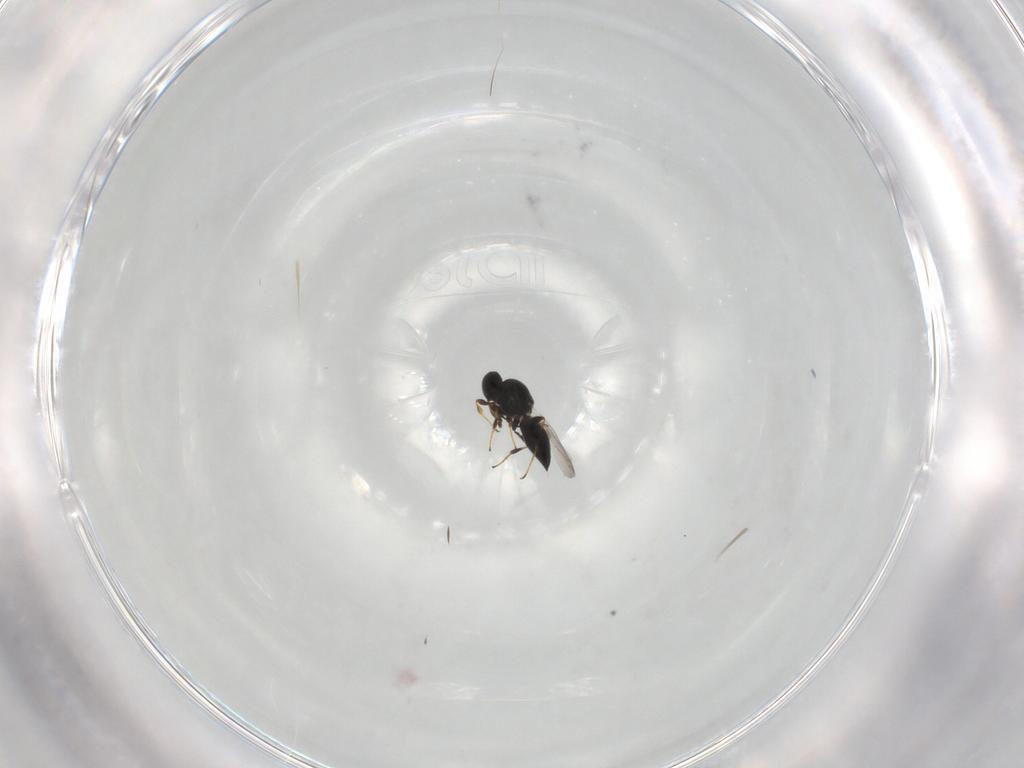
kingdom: Animalia
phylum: Arthropoda
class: Insecta
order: Hymenoptera
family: Platygastridae
